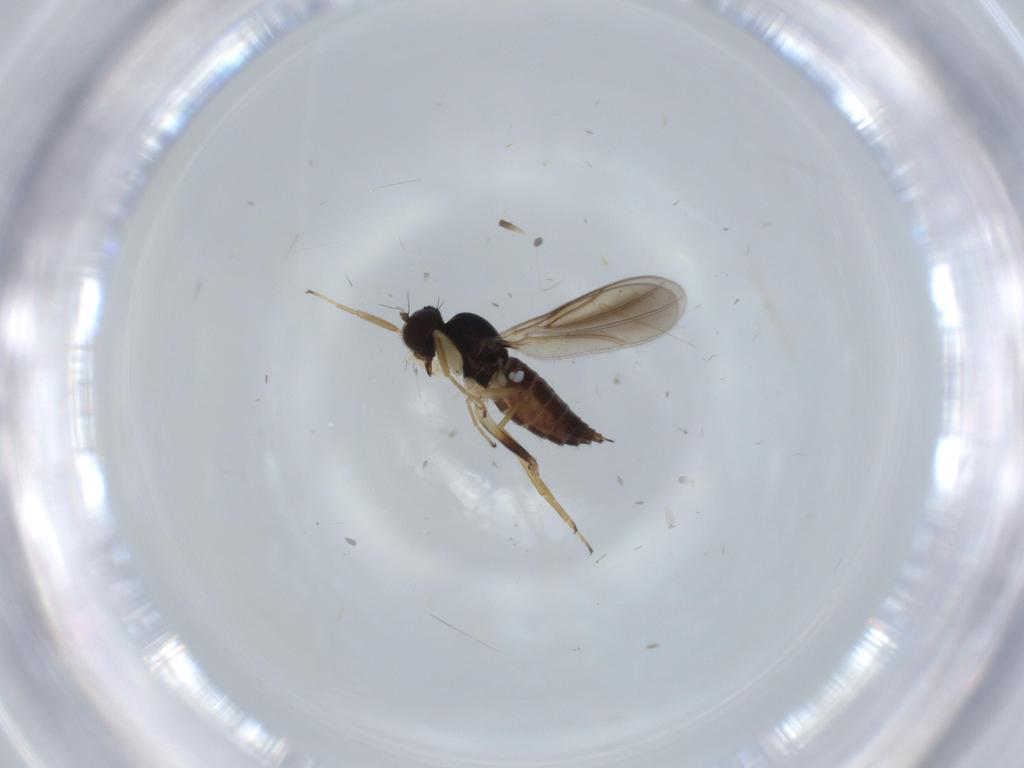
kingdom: Animalia
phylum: Arthropoda
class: Insecta
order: Diptera
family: Hybotidae
